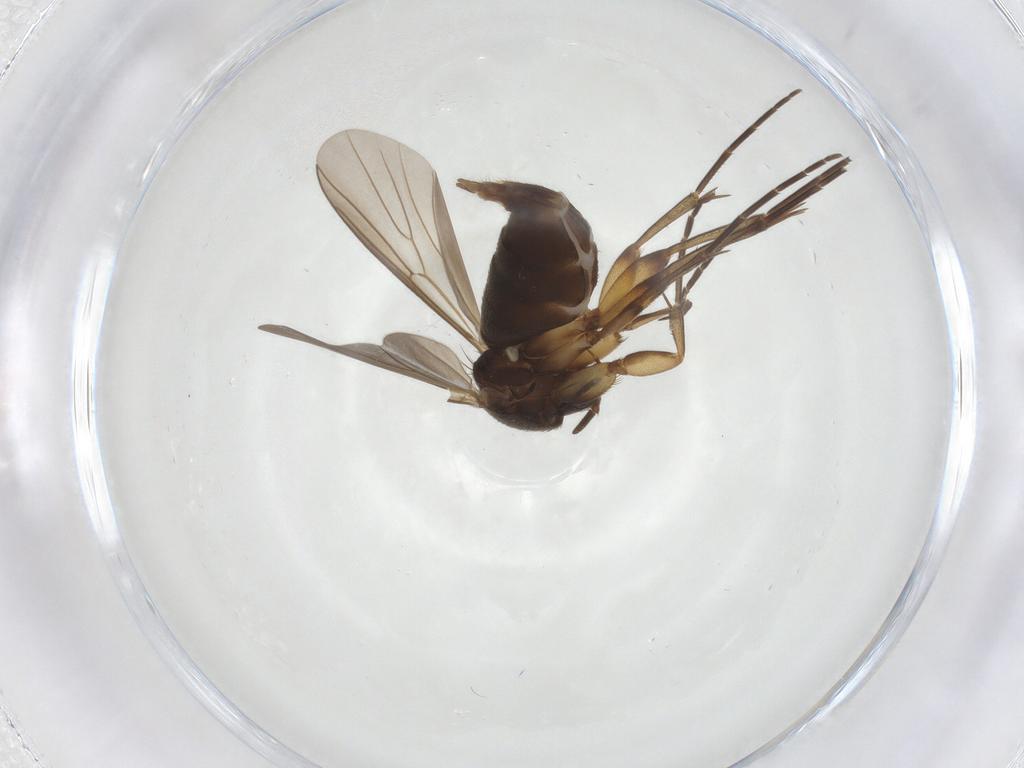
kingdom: Animalia
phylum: Arthropoda
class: Insecta
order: Diptera
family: Mycetophilidae
